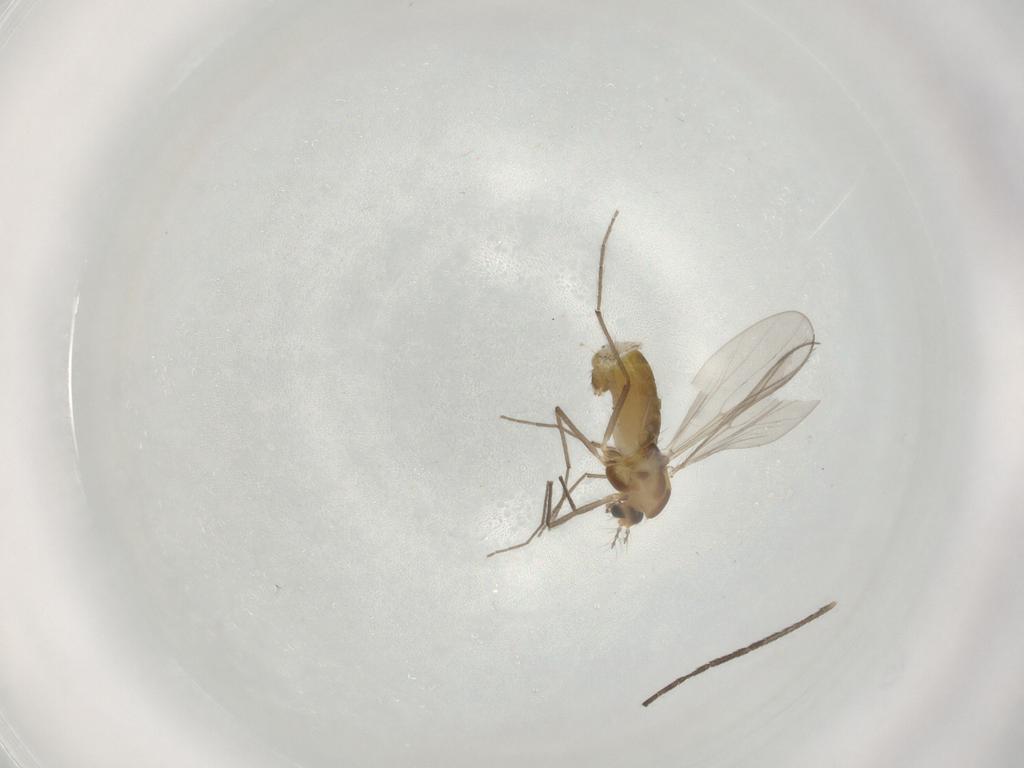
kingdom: Animalia
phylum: Arthropoda
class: Insecta
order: Diptera
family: Chironomidae
